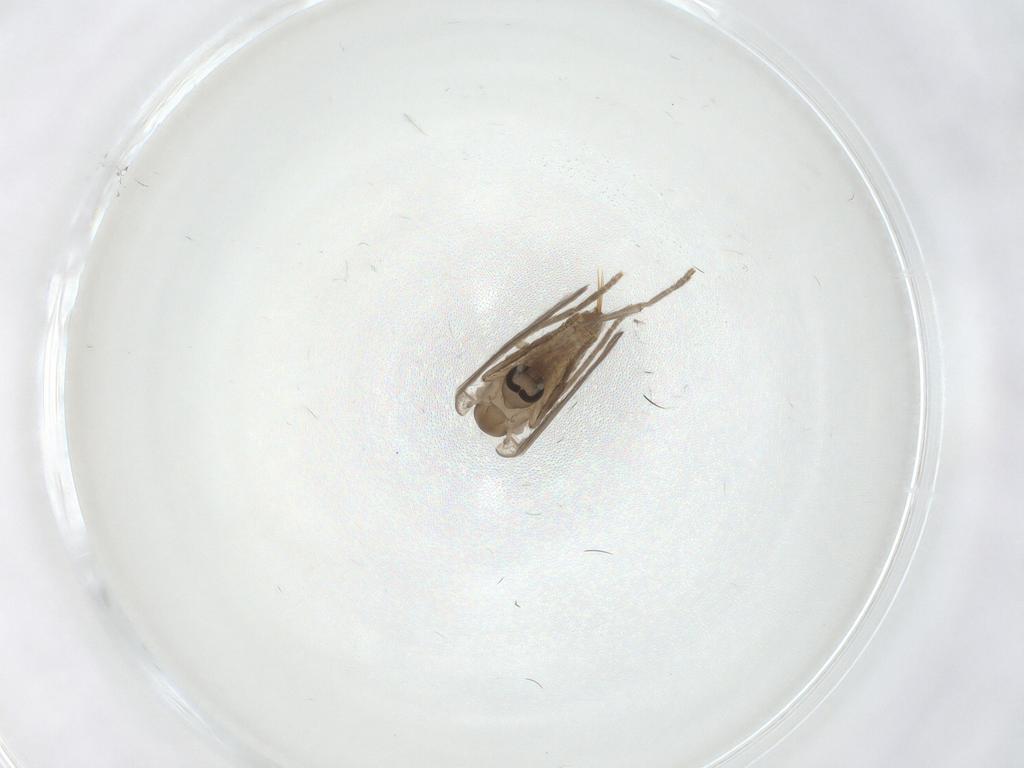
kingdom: Animalia
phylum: Arthropoda
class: Insecta
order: Diptera
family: Psychodidae
